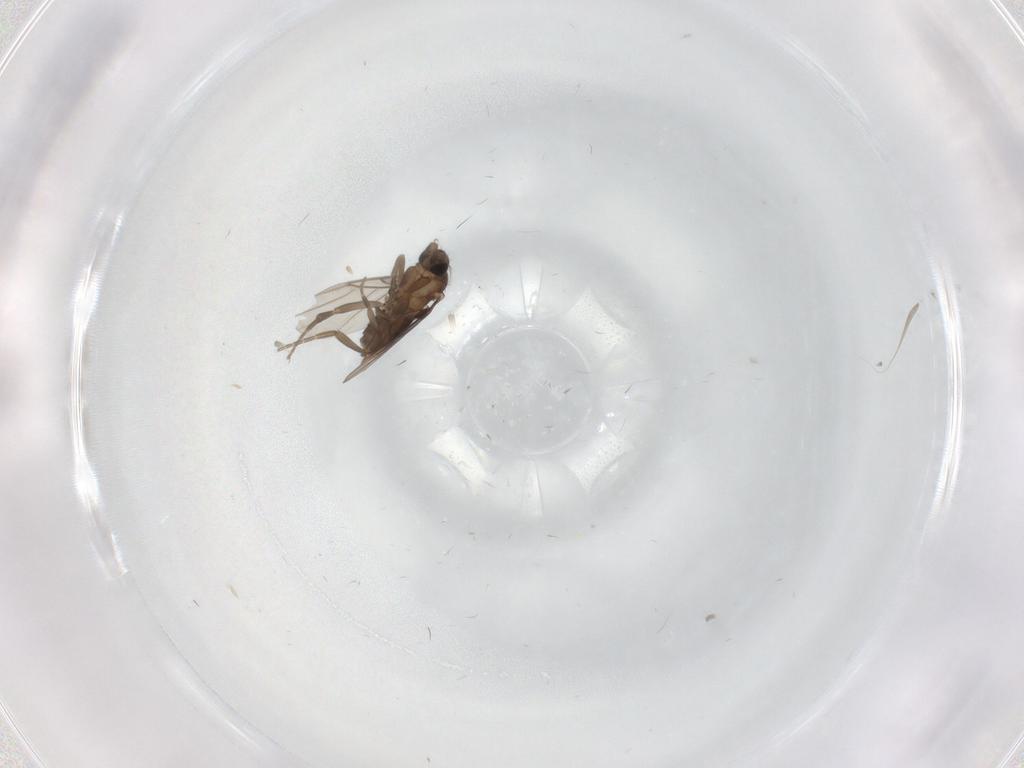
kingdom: Animalia
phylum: Arthropoda
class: Insecta
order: Diptera
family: Phoridae
